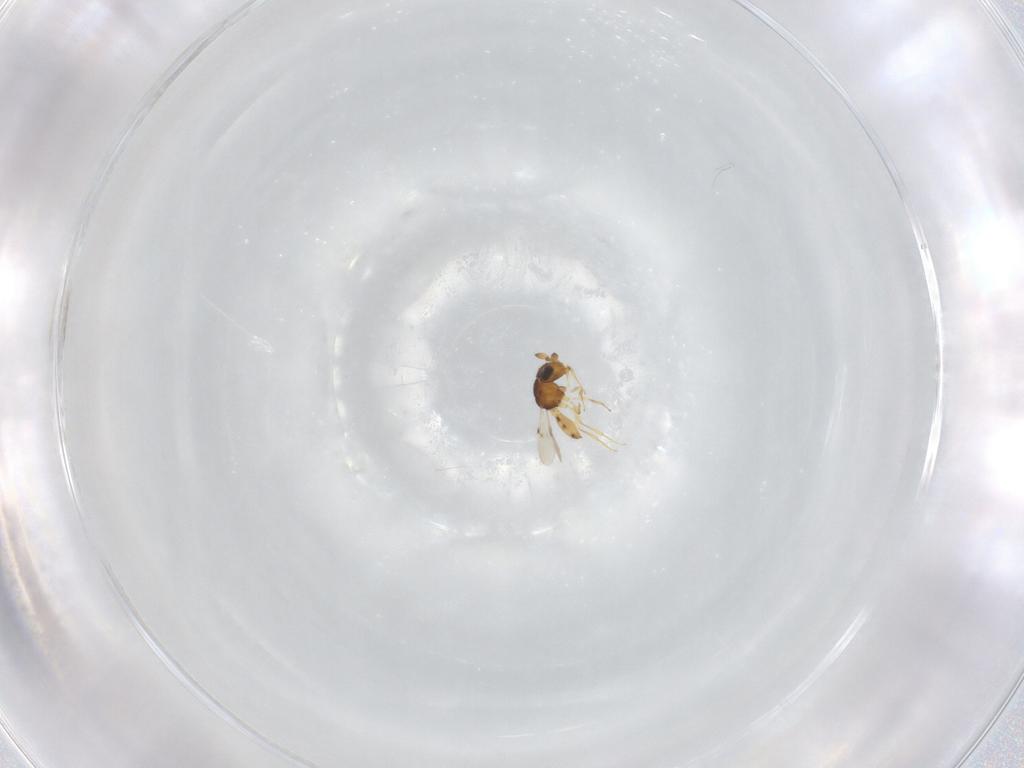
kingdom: Animalia
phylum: Arthropoda
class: Insecta
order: Hymenoptera
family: Scelionidae
